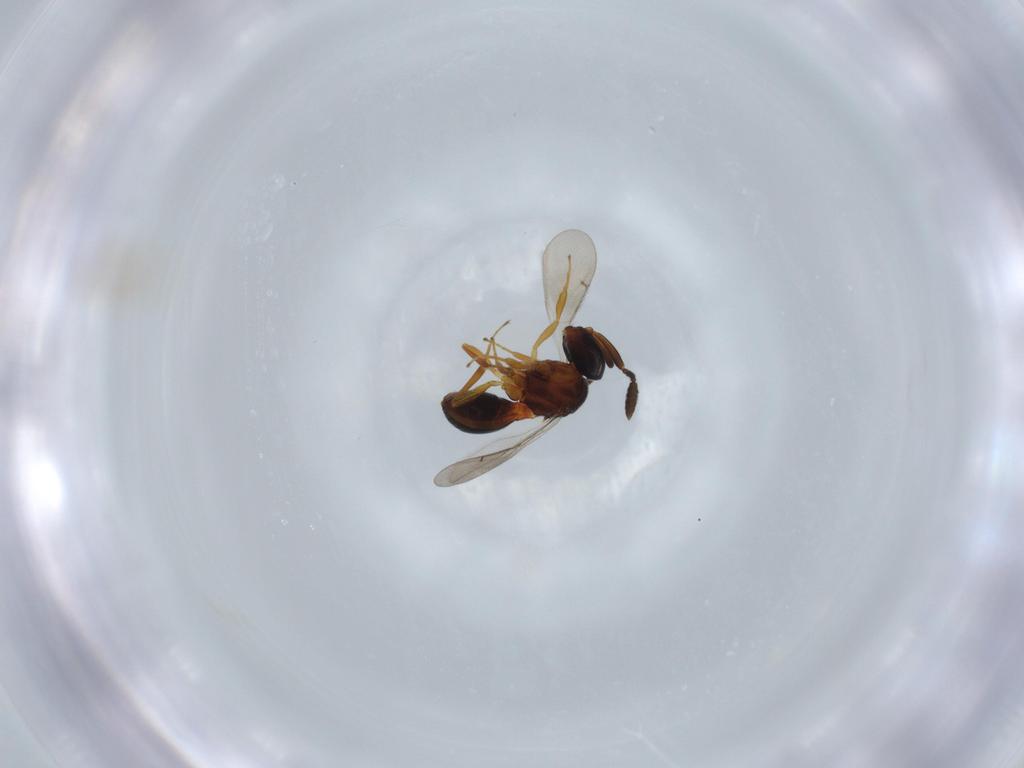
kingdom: Animalia
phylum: Arthropoda
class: Insecta
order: Hymenoptera
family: Scelionidae
